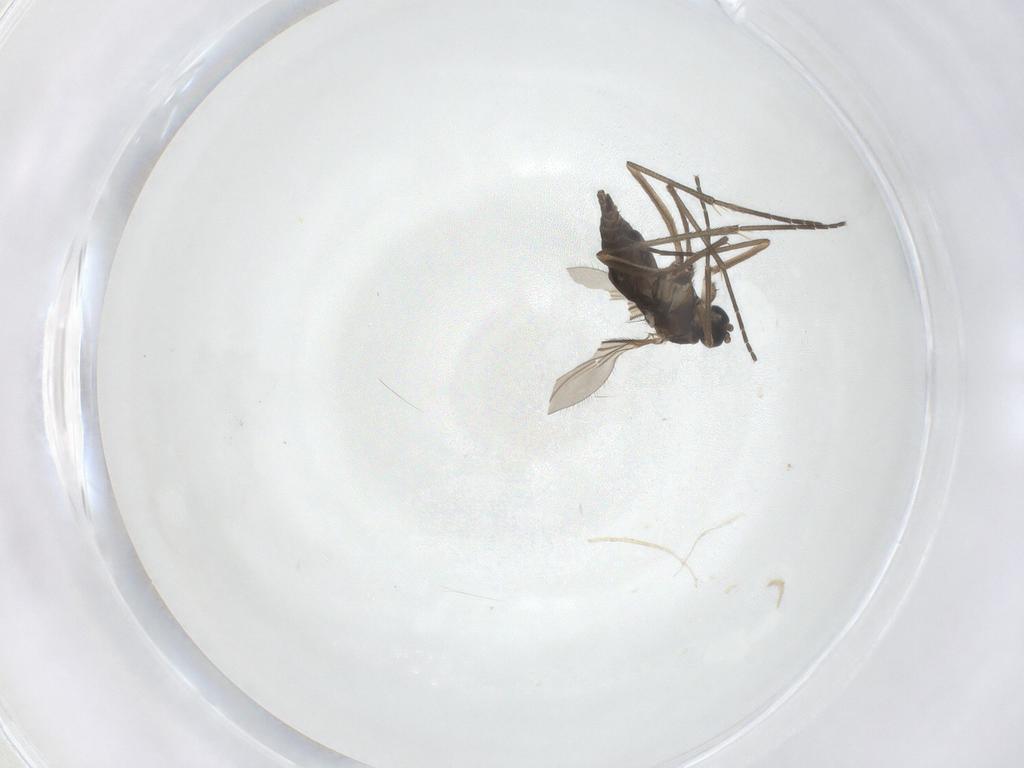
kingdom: Animalia
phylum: Arthropoda
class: Insecta
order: Diptera
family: Sciaridae
